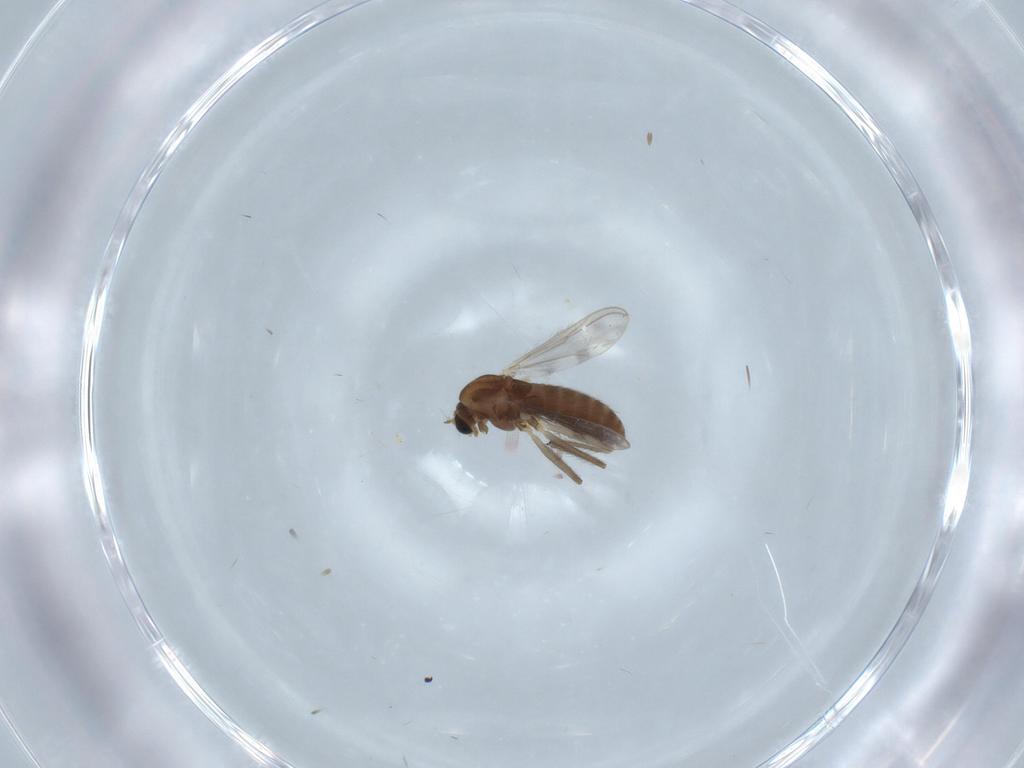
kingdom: Animalia
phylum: Arthropoda
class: Insecta
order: Diptera
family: Chironomidae
